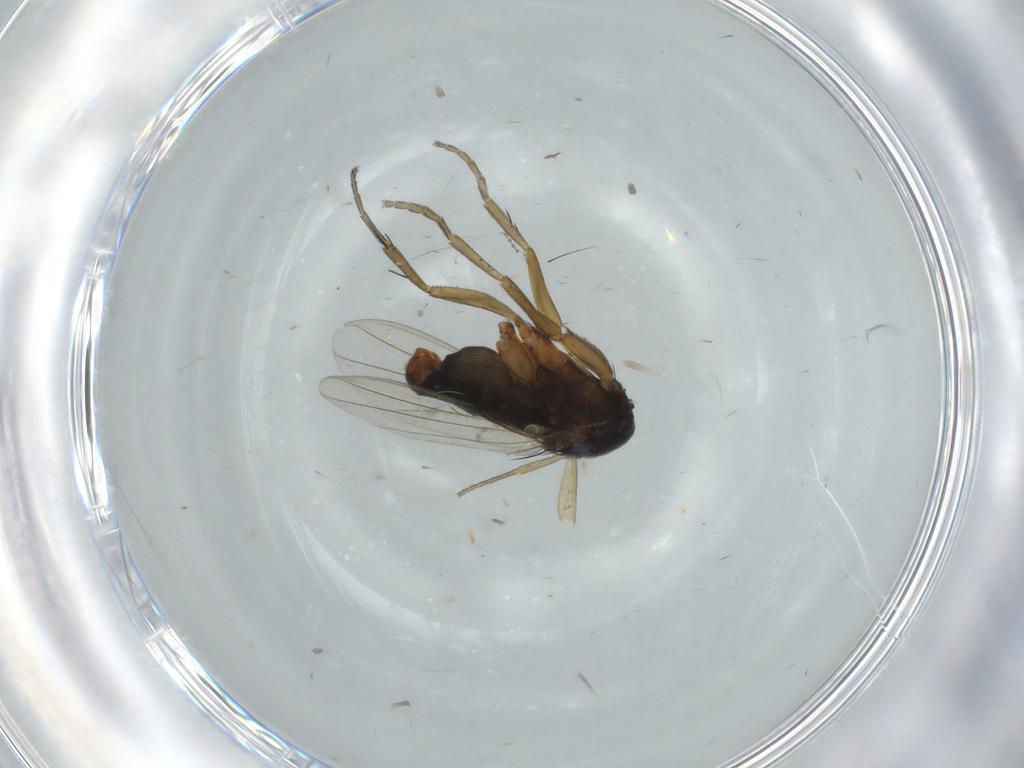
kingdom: Animalia
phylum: Arthropoda
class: Insecta
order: Diptera
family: Phoridae
